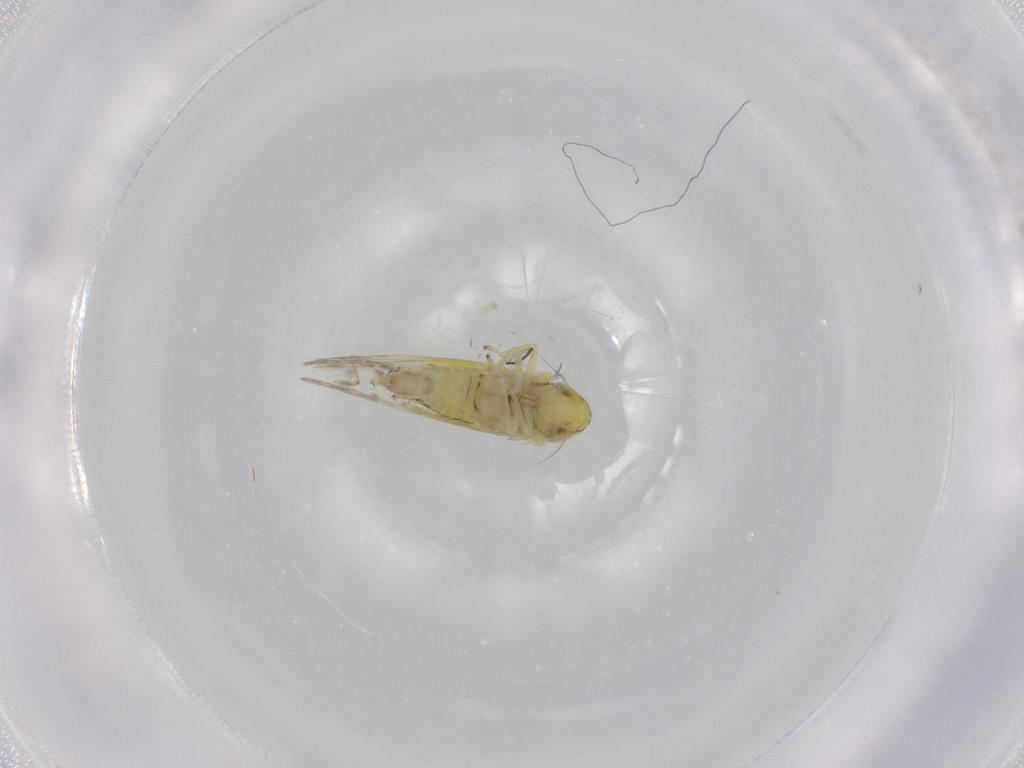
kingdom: Animalia
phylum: Arthropoda
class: Insecta
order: Hemiptera
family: Cicadellidae
